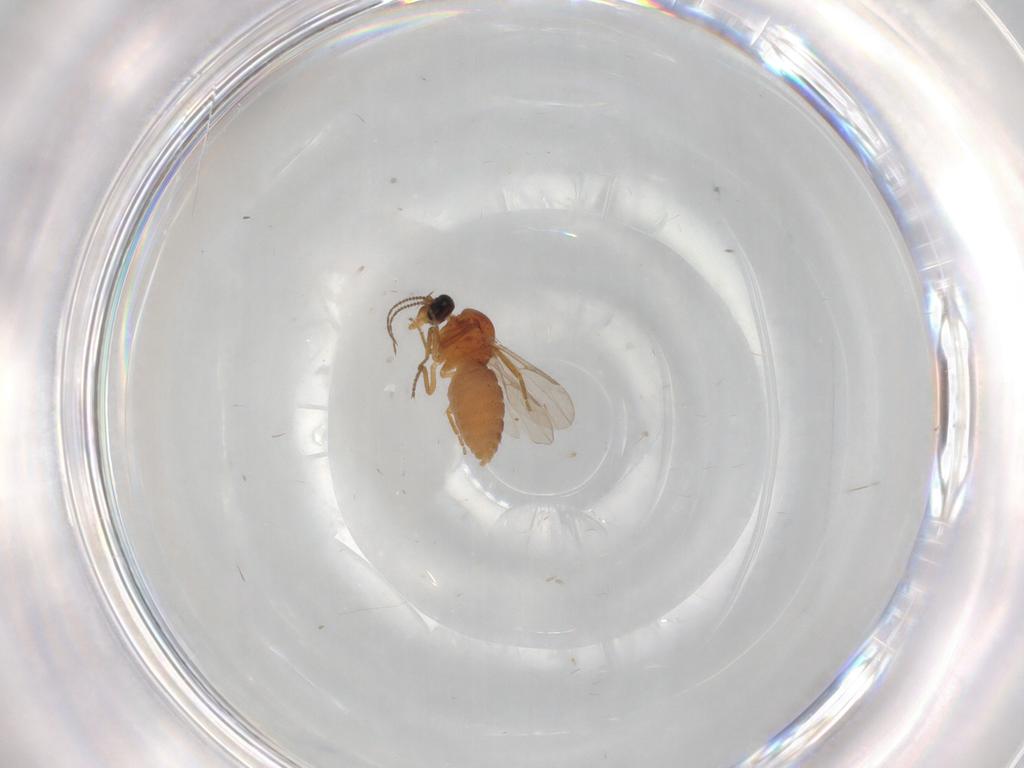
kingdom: Animalia
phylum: Arthropoda
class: Insecta
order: Diptera
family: Ceratopogonidae
